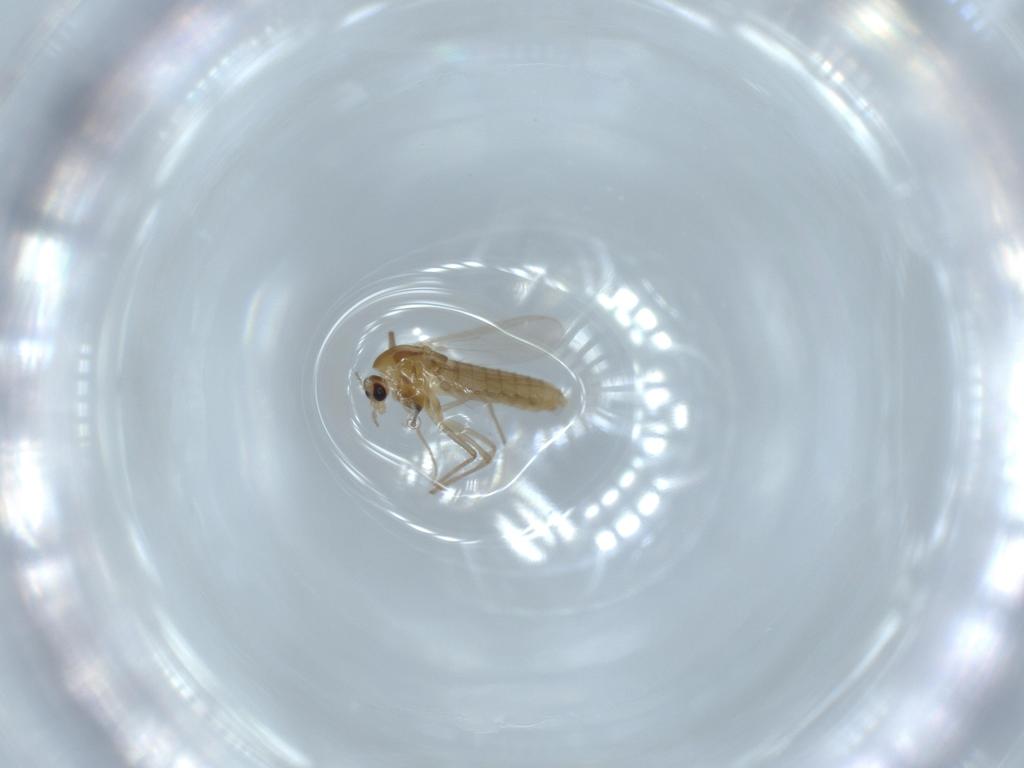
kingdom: Animalia
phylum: Arthropoda
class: Insecta
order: Diptera
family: Chironomidae
